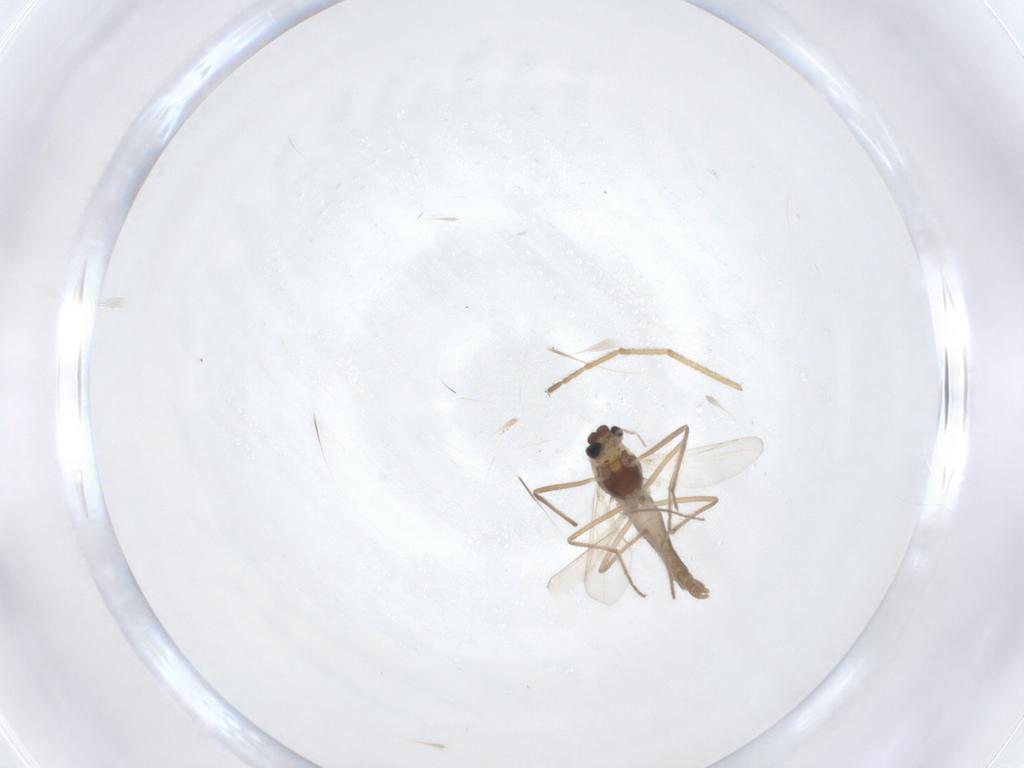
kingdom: Animalia
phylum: Arthropoda
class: Insecta
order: Diptera
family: Chironomidae
